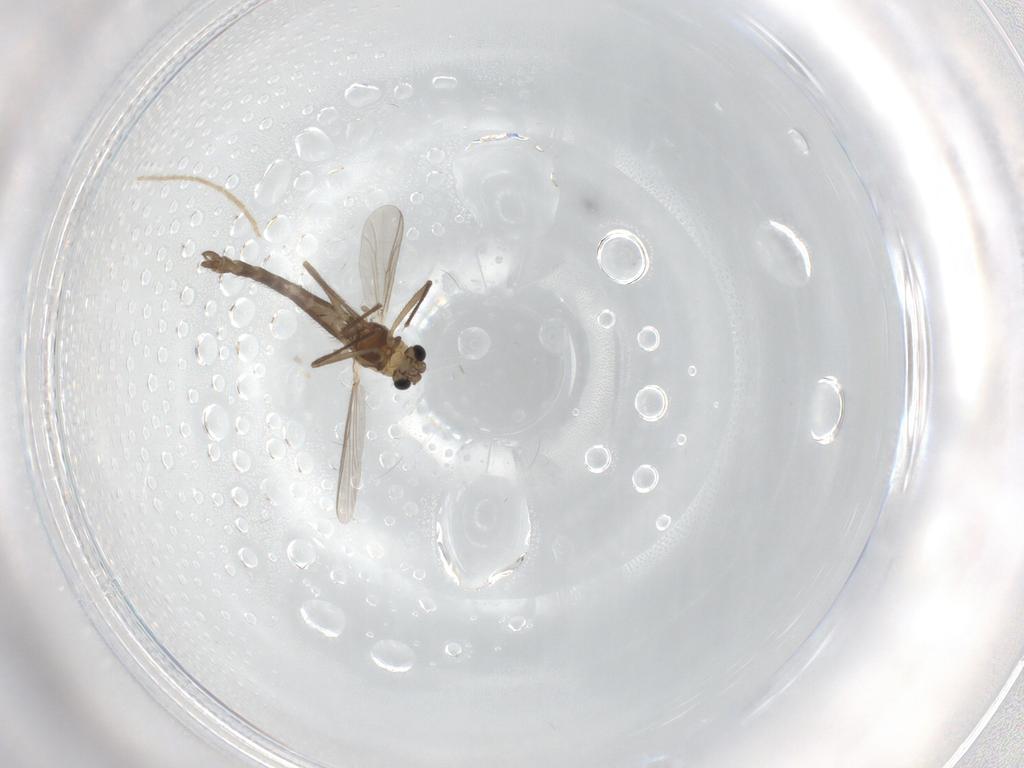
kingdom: Animalia
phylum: Arthropoda
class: Insecta
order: Diptera
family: Chironomidae
